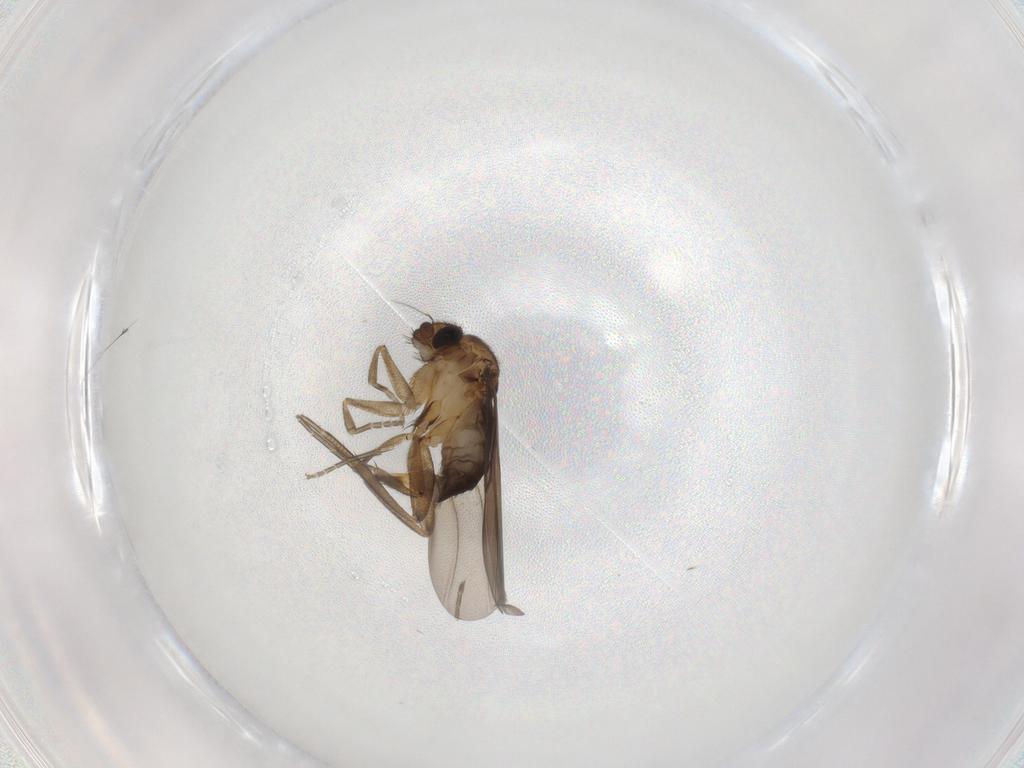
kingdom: Animalia
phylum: Arthropoda
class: Insecta
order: Diptera
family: Phoridae
